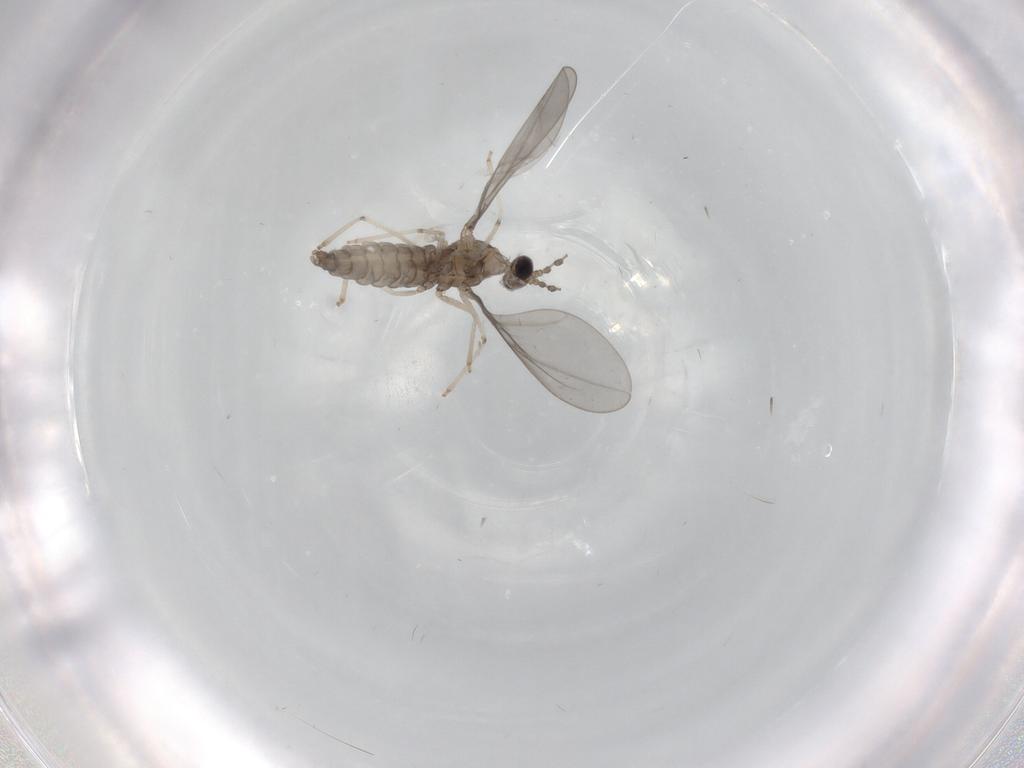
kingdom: Animalia
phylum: Arthropoda
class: Insecta
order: Diptera
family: Cecidomyiidae
